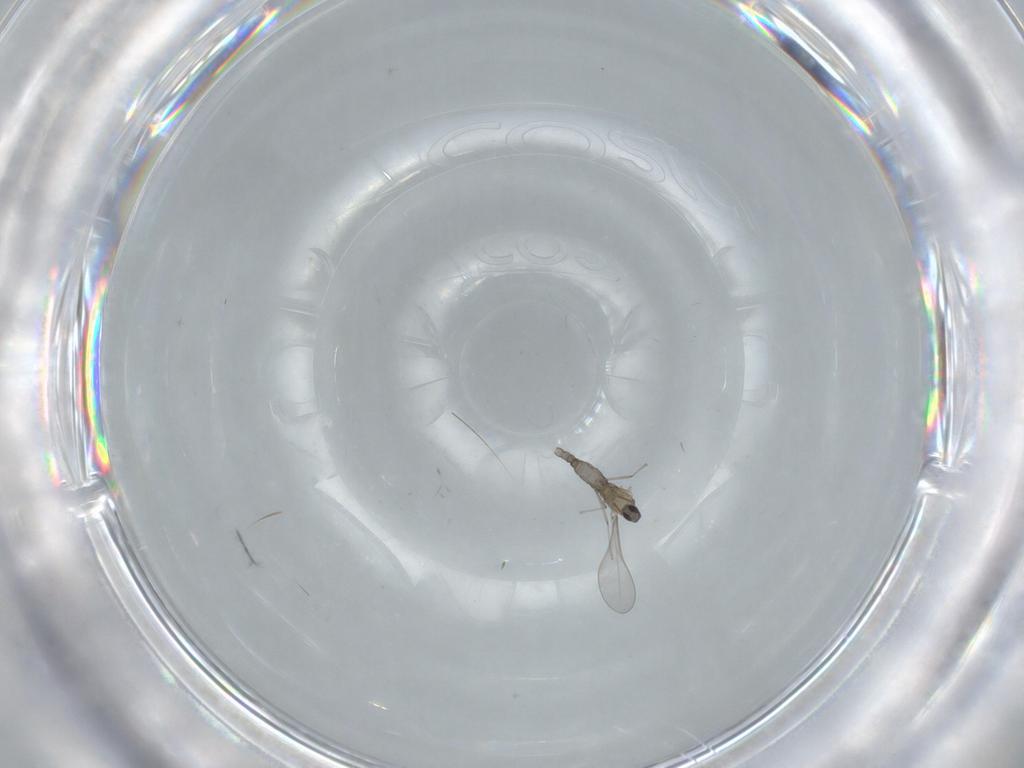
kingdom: Animalia
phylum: Arthropoda
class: Insecta
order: Diptera
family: Cecidomyiidae
